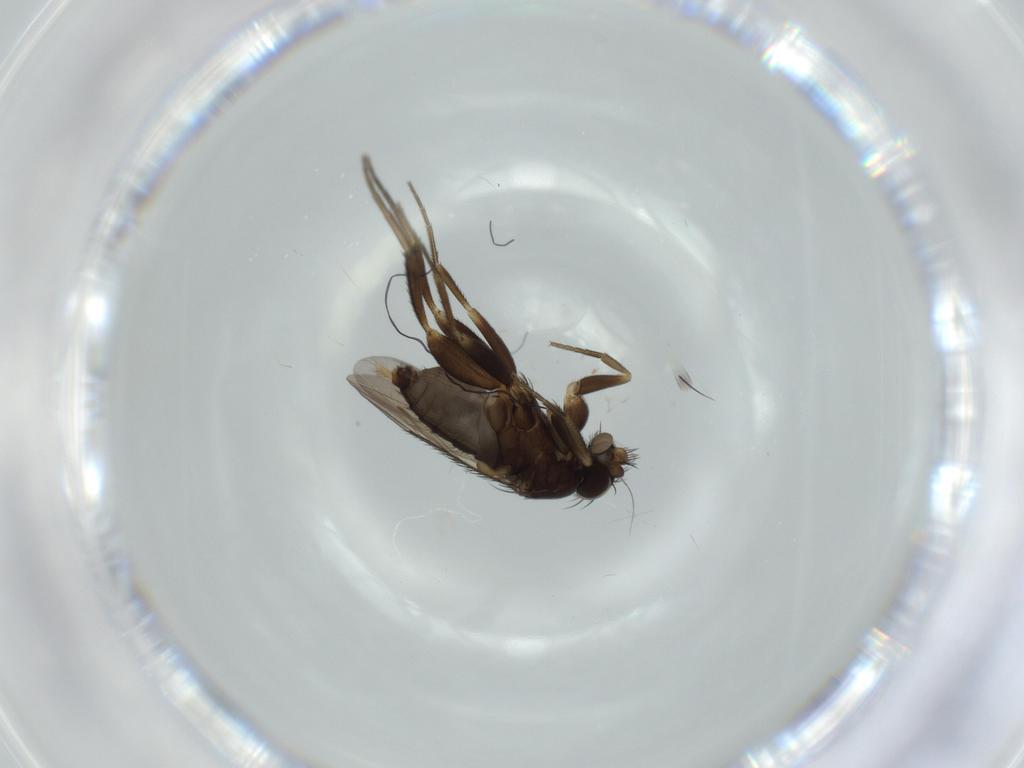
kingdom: Animalia
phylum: Arthropoda
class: Insecta
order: Diptera
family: Phoridae
